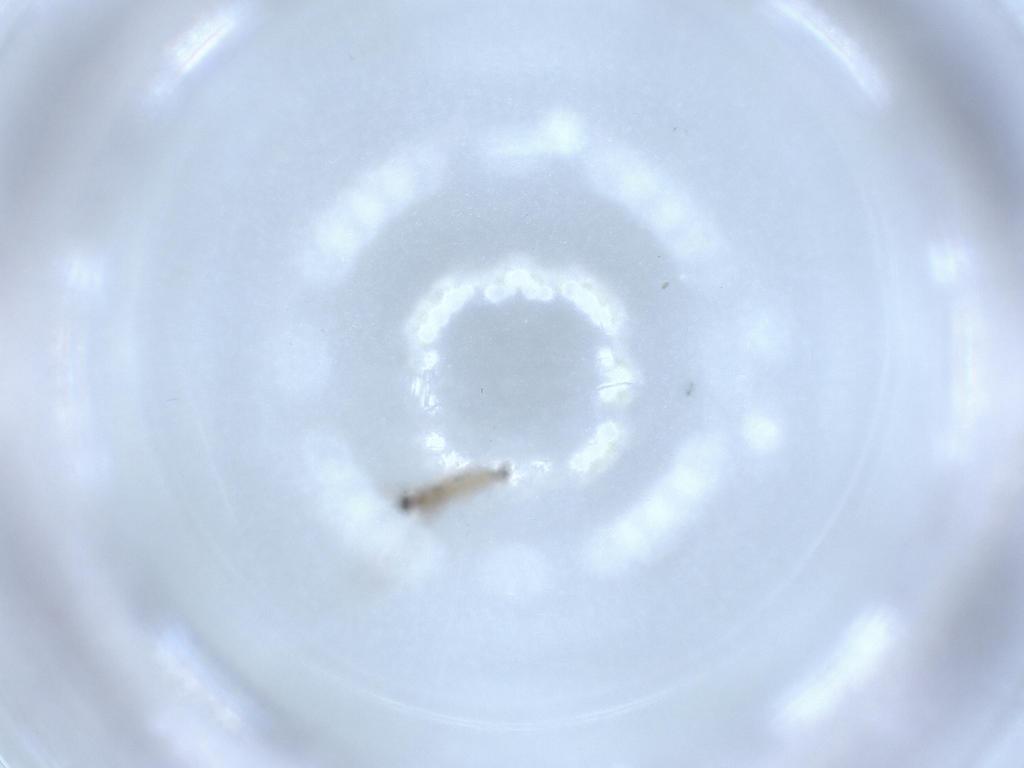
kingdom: Animalia
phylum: Arthropoda
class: Insecta
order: Diptera
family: Cecidomyiidae
